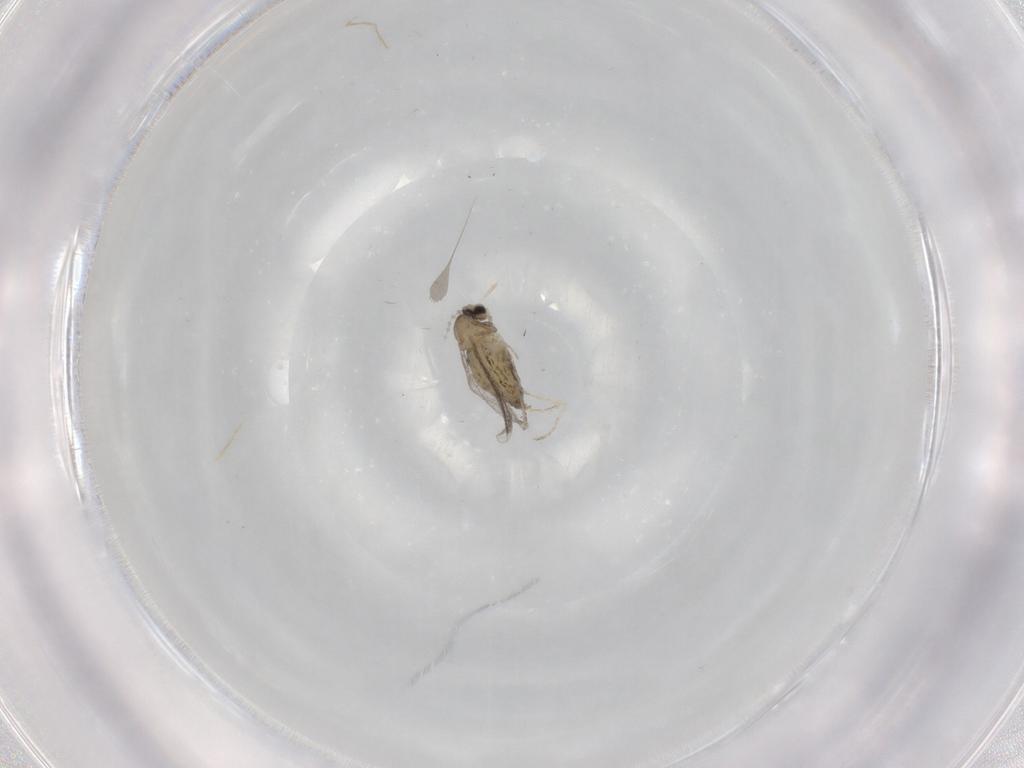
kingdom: Animalia
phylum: Arthropoda
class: Insecta
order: Diptera
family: Cecidomyiidae
